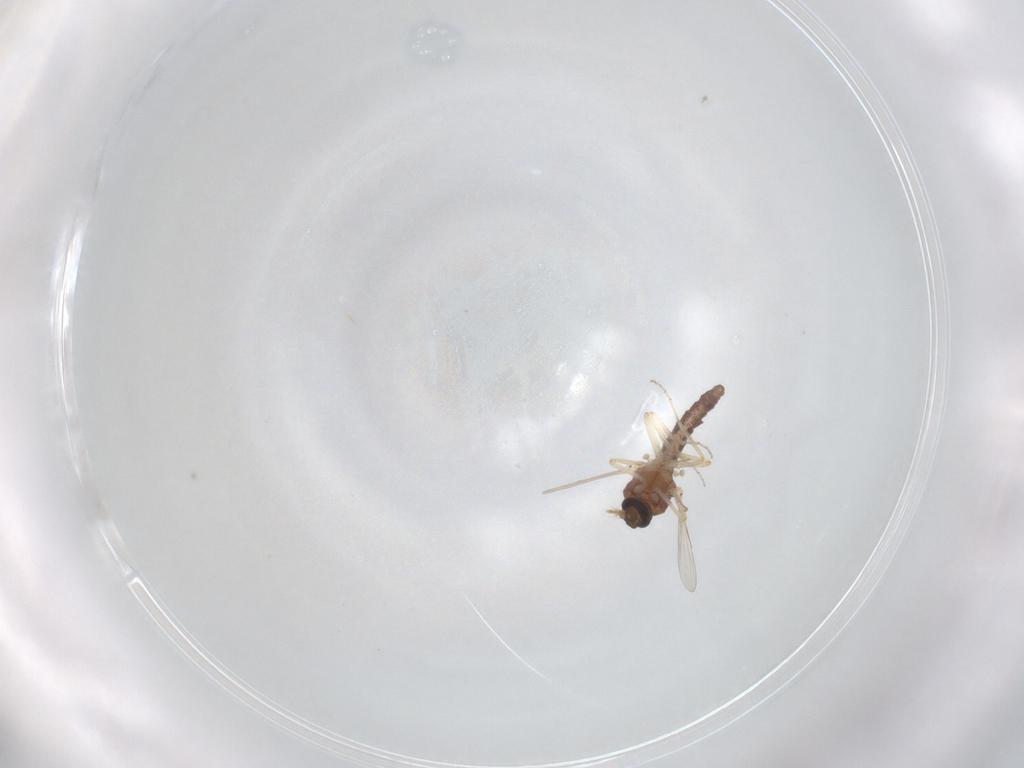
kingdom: Animalia
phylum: Arthropoda
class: Insecta
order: Diptera
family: Ceratopogonidae
